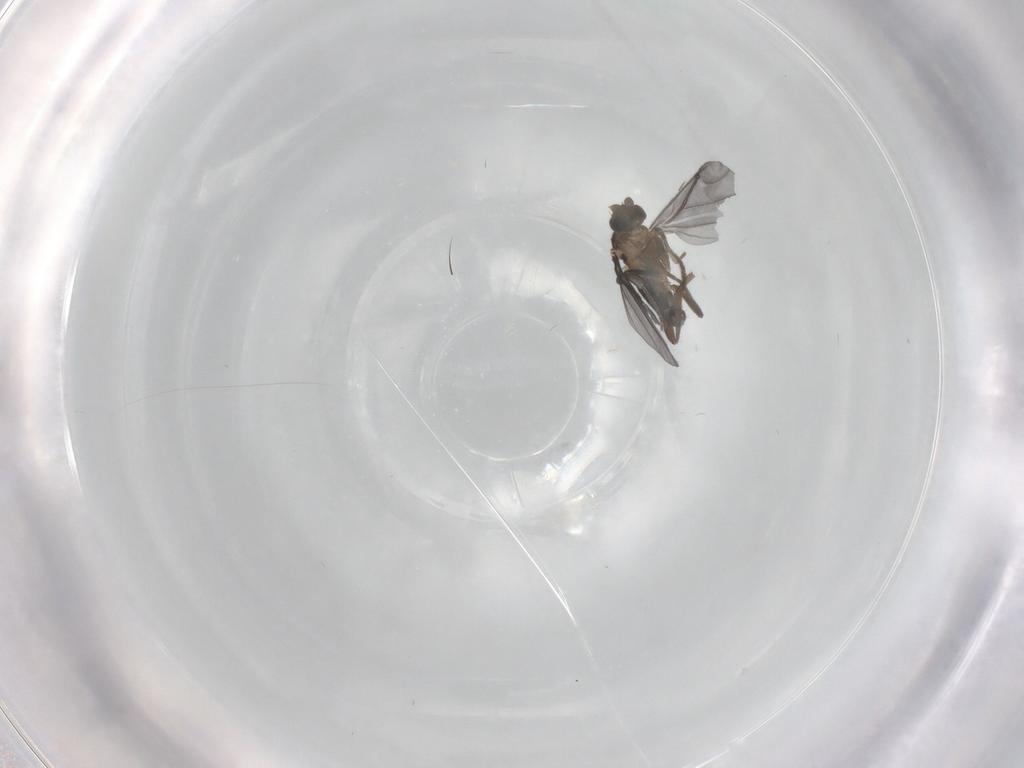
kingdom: Animalia
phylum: Arthropoda
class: Insecta
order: Diptera
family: Phoridae
